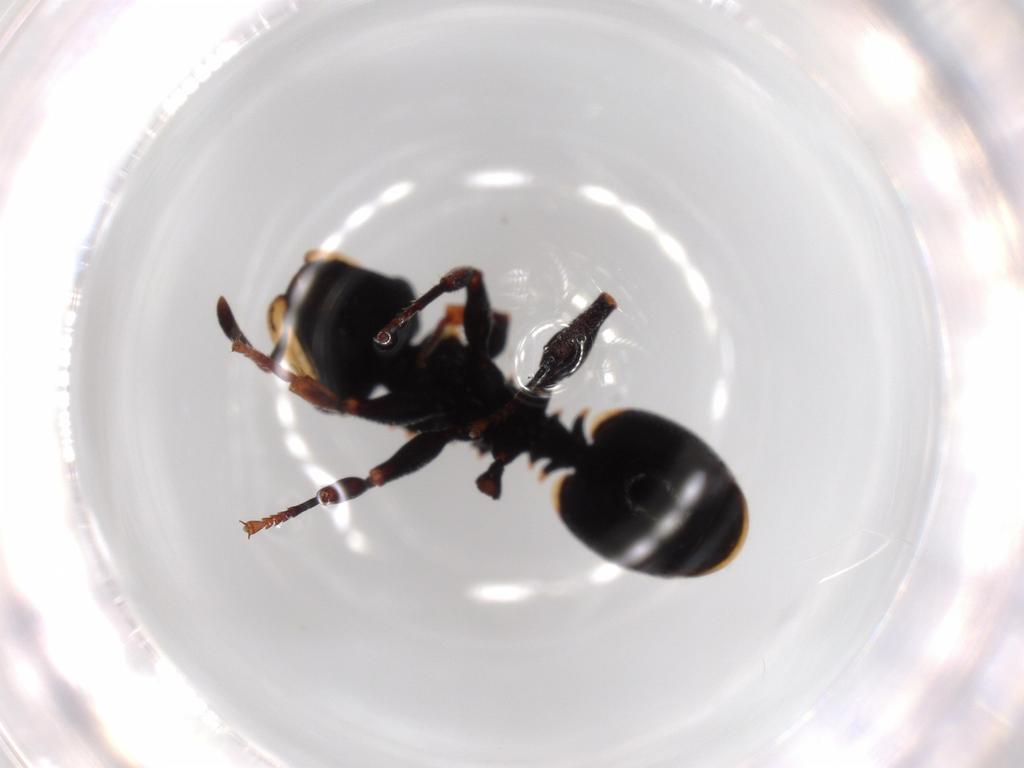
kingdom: Animalia
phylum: Arthropoda
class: Insecta
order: Hymenoptera
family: Formicidae
